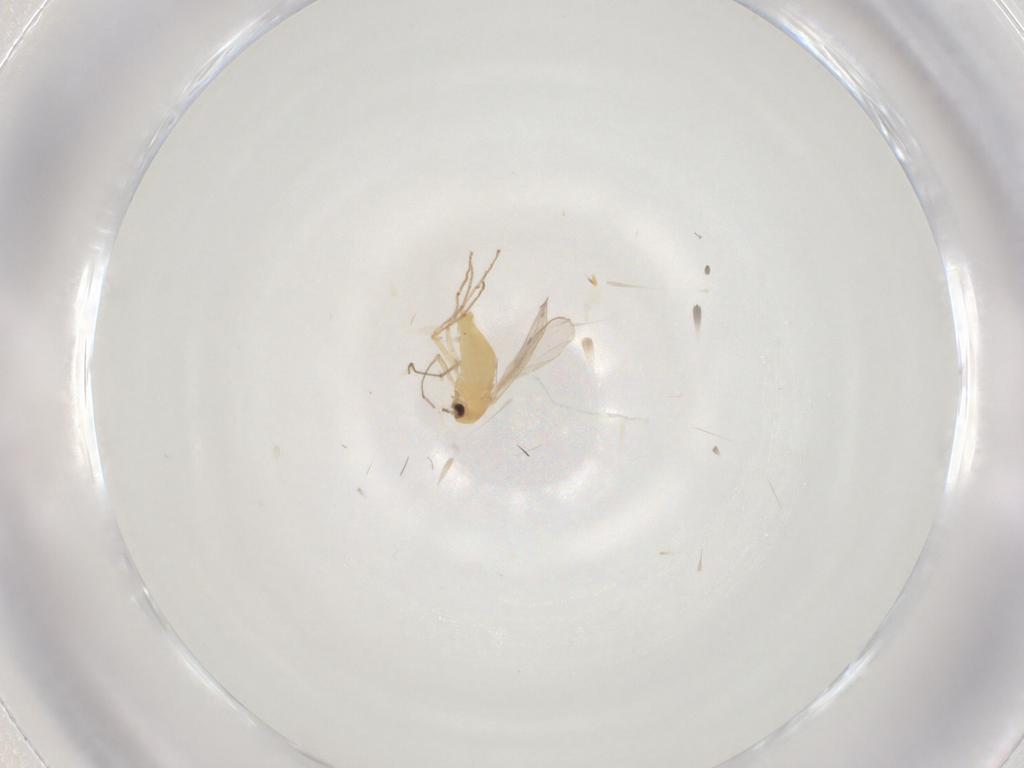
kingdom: Animalia
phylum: Arthropoda
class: Insecta
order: Diptera
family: Chironomidae
